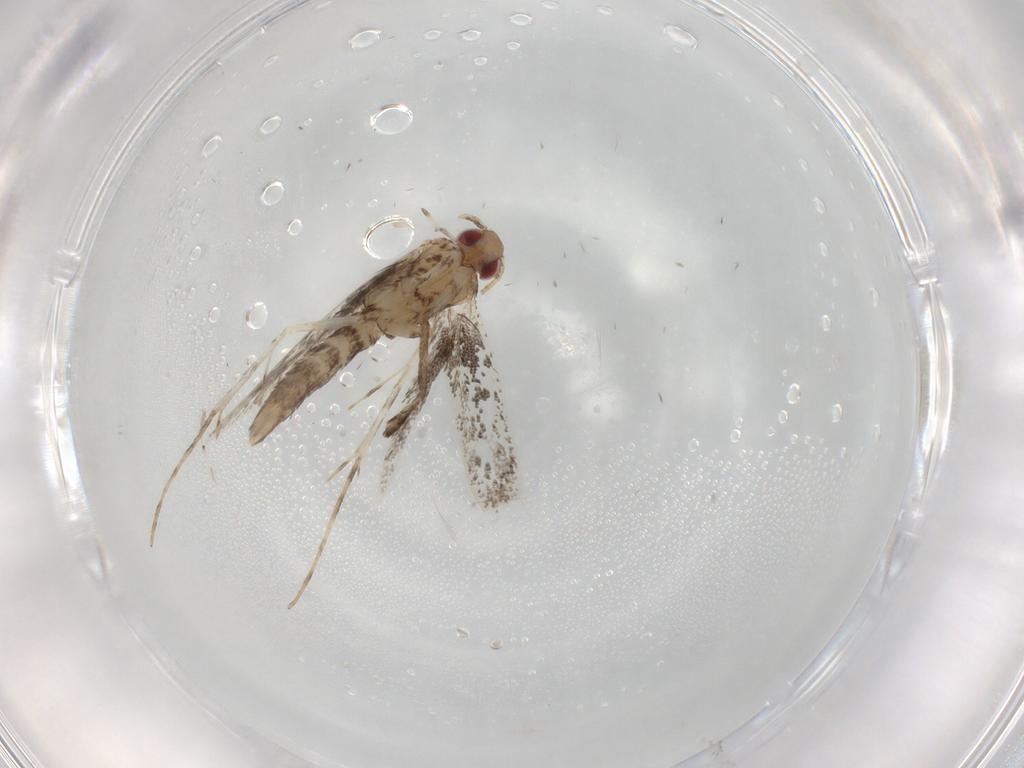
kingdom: Animalia
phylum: Arthropoda
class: Insecta
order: Lepidoptera
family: Gracillariidae
